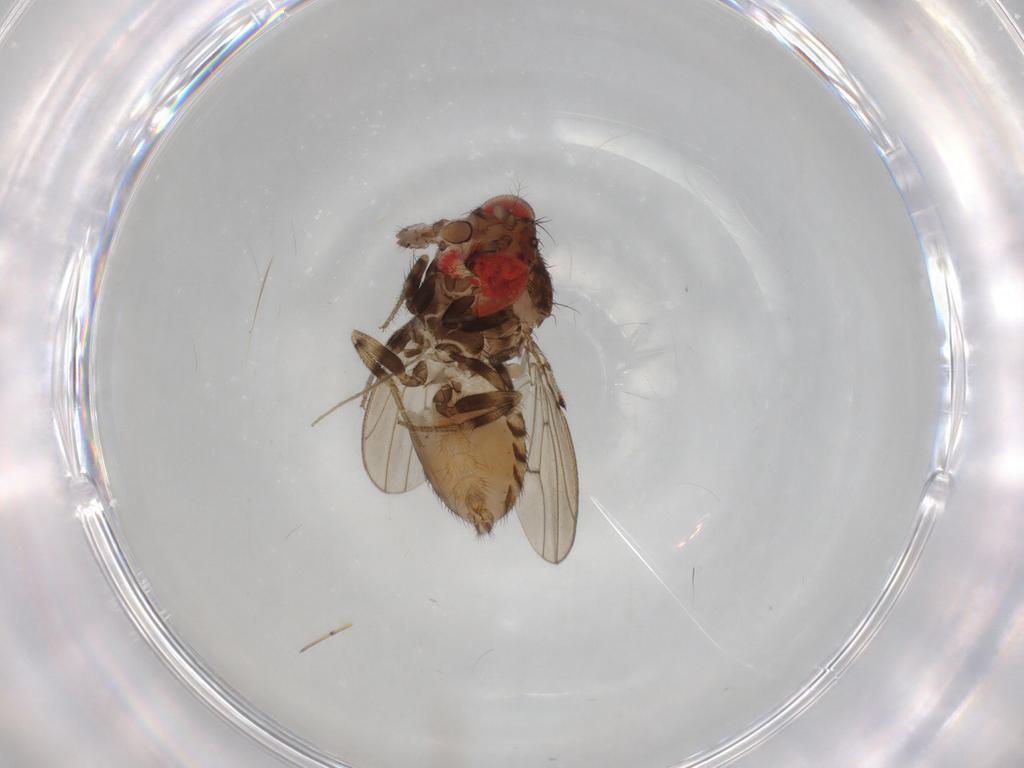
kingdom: Animalia
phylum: Arthropoda
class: Insecta
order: Diptera
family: Drosophilidae
